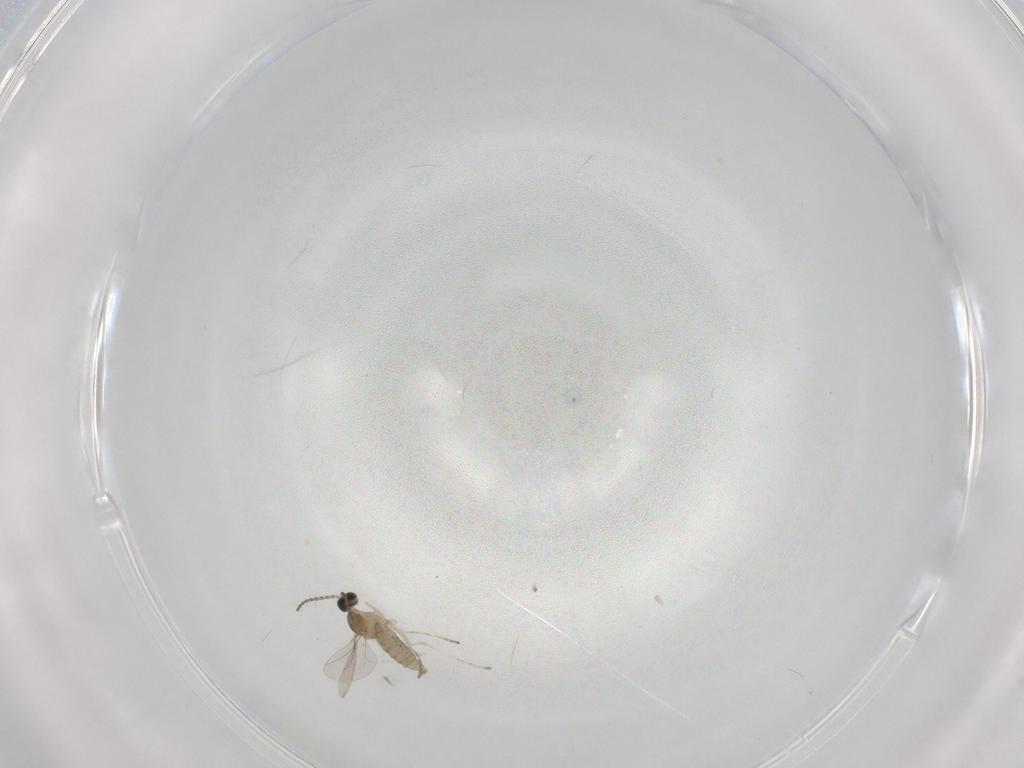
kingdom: Animalia
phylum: Arthropoda
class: Insecta
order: Diptera
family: Cecidomyiidae
